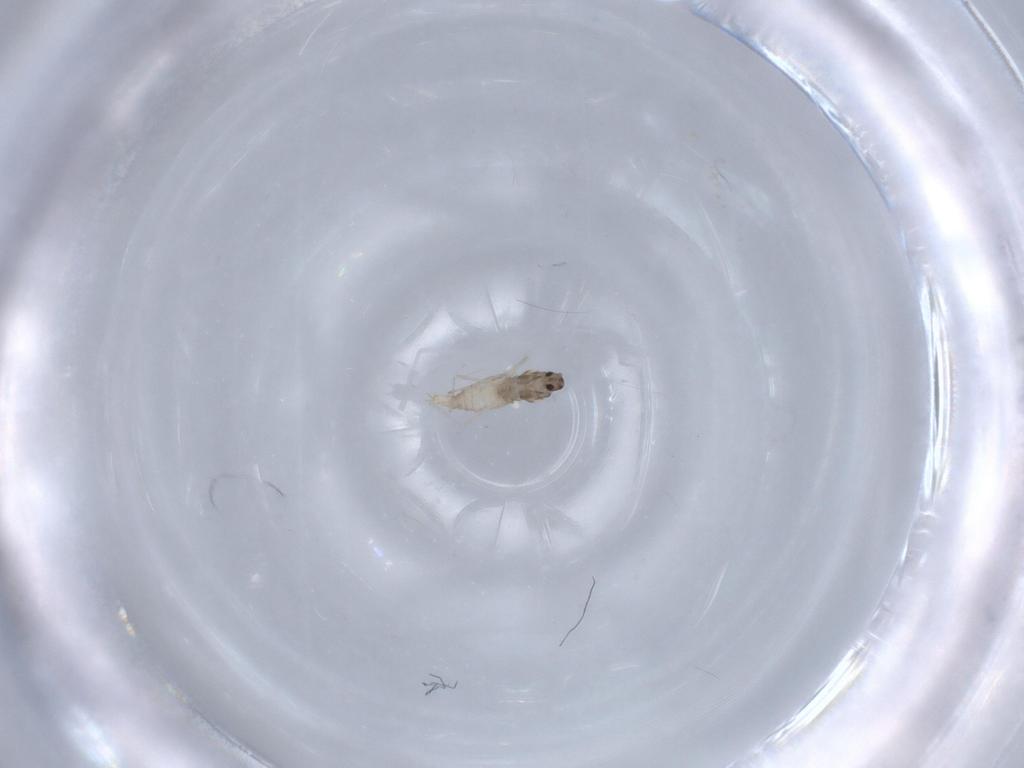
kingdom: Animalia
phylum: Arthropoda
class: Insecta
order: Diptera
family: Cecidomyiidae
